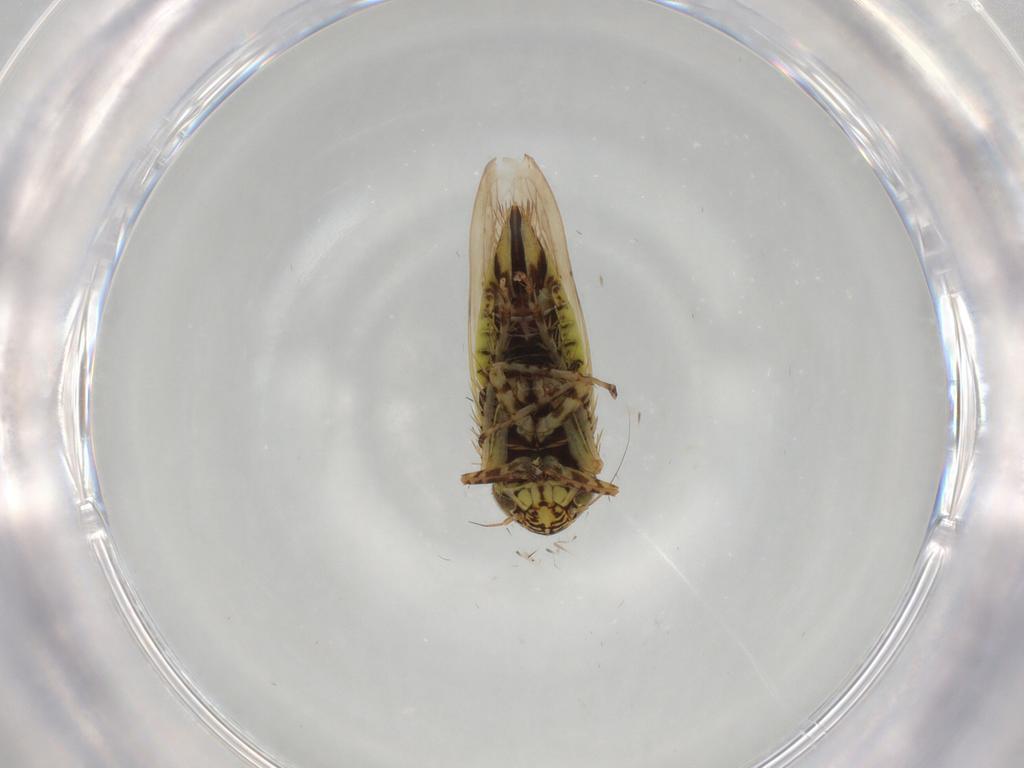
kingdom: Animalia
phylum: Arthropoda
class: Insecta
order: Hemiptera
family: Cicadellidae
